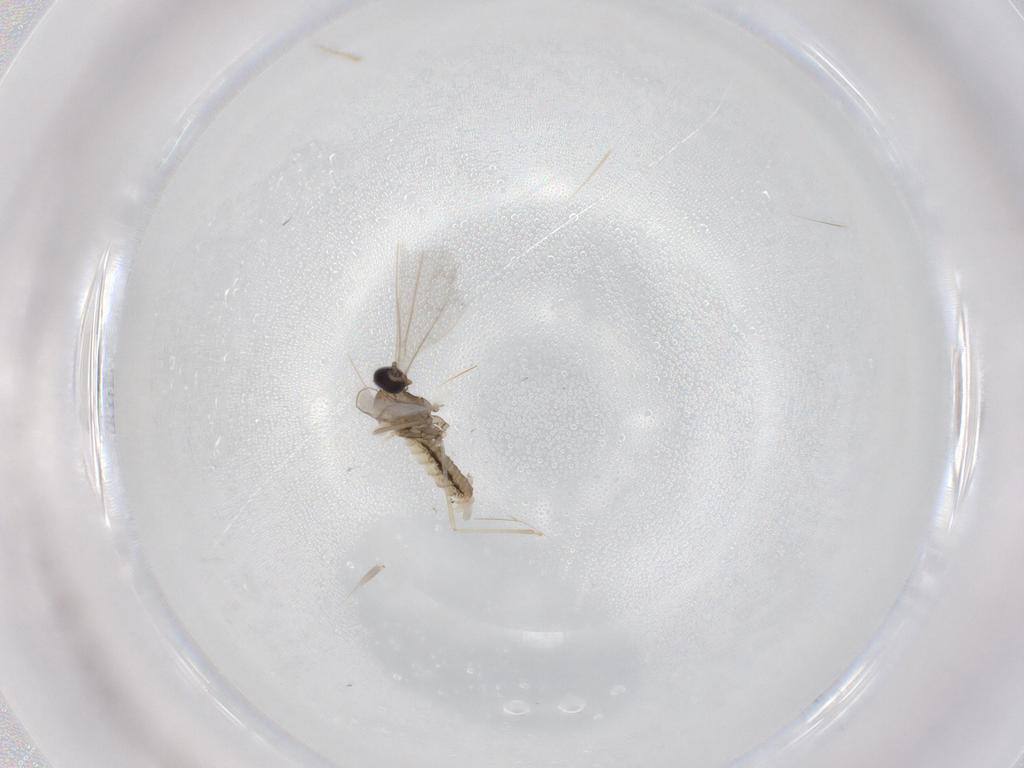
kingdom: Animalia
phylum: Arthropoda
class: Insecta
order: Diptera
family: Cecidomyiidae
